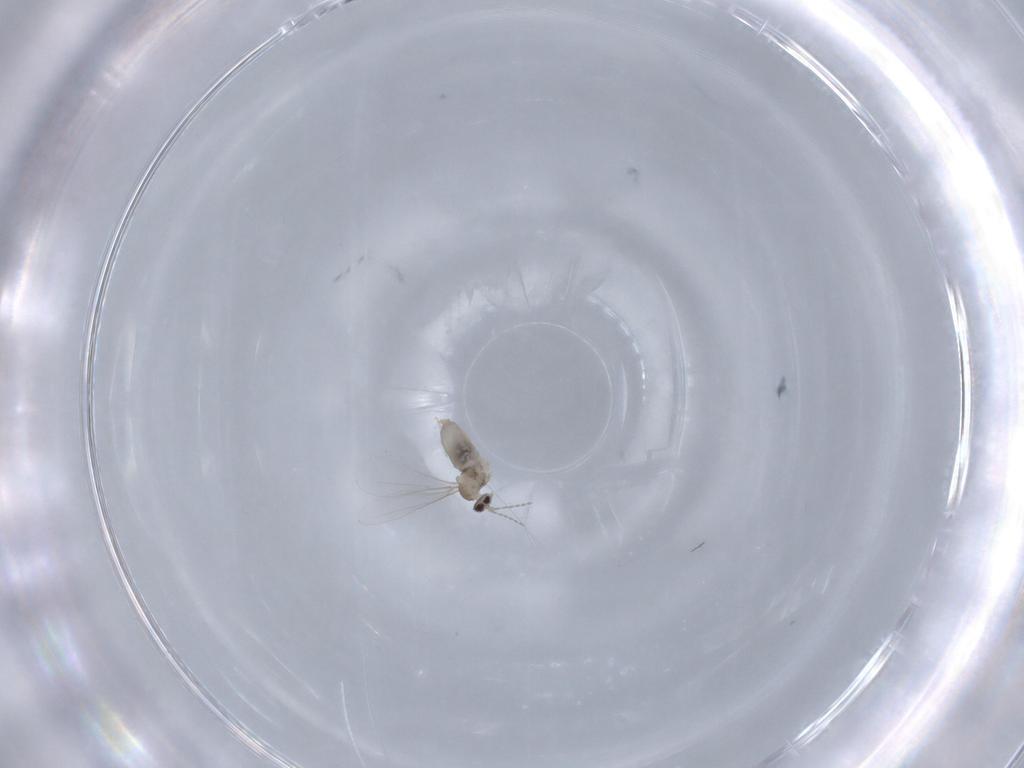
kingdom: Animalia
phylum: Arthropoda
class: Insecta
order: Diptera
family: Cecidomyiidae
